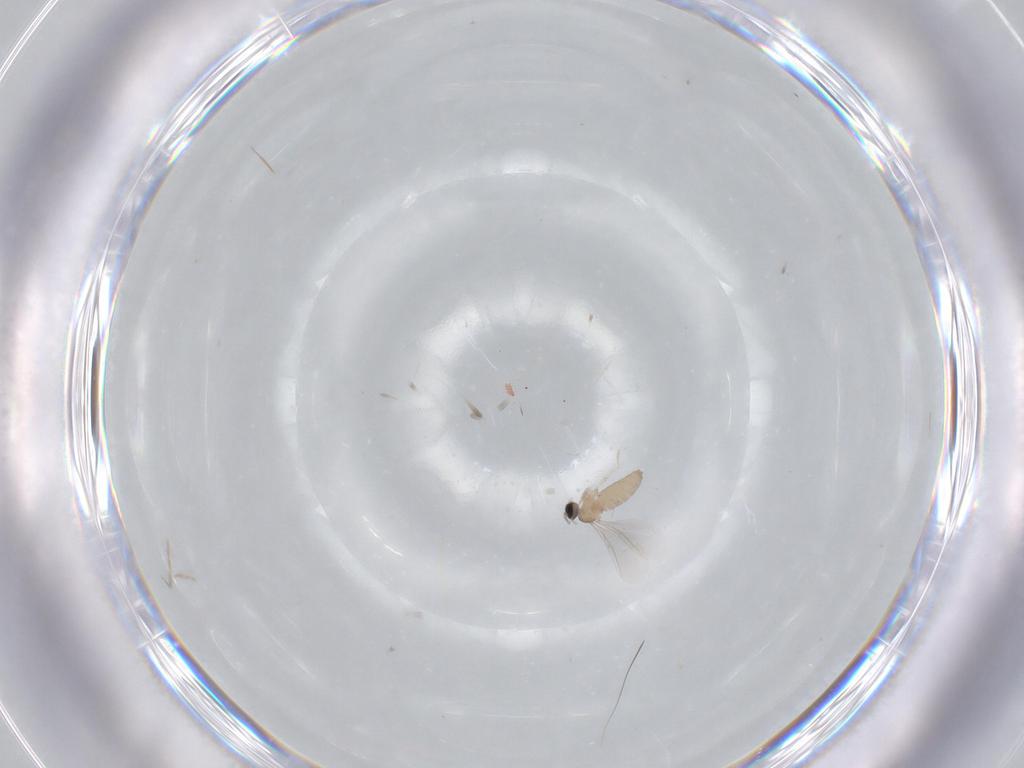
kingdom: Animalia
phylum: Arthropoda
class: Insecta
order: Diptera
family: Cecidomyiidae
